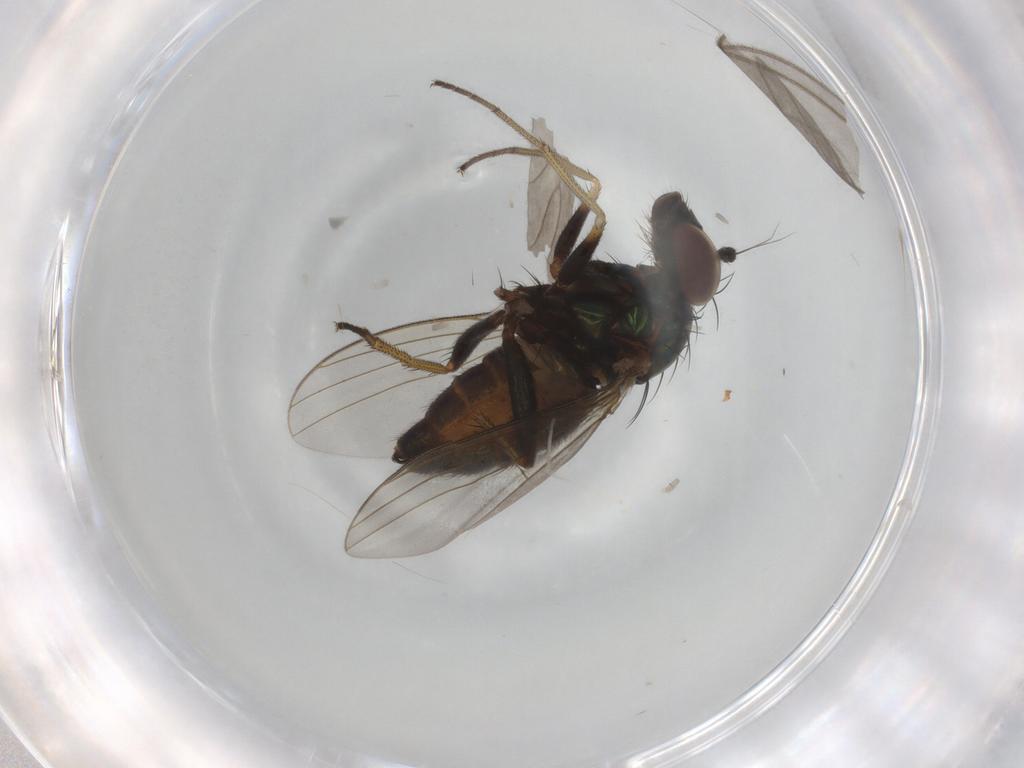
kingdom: Animalia
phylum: Arthropoda
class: Insecta
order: Diptera
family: Dolichopodidae
